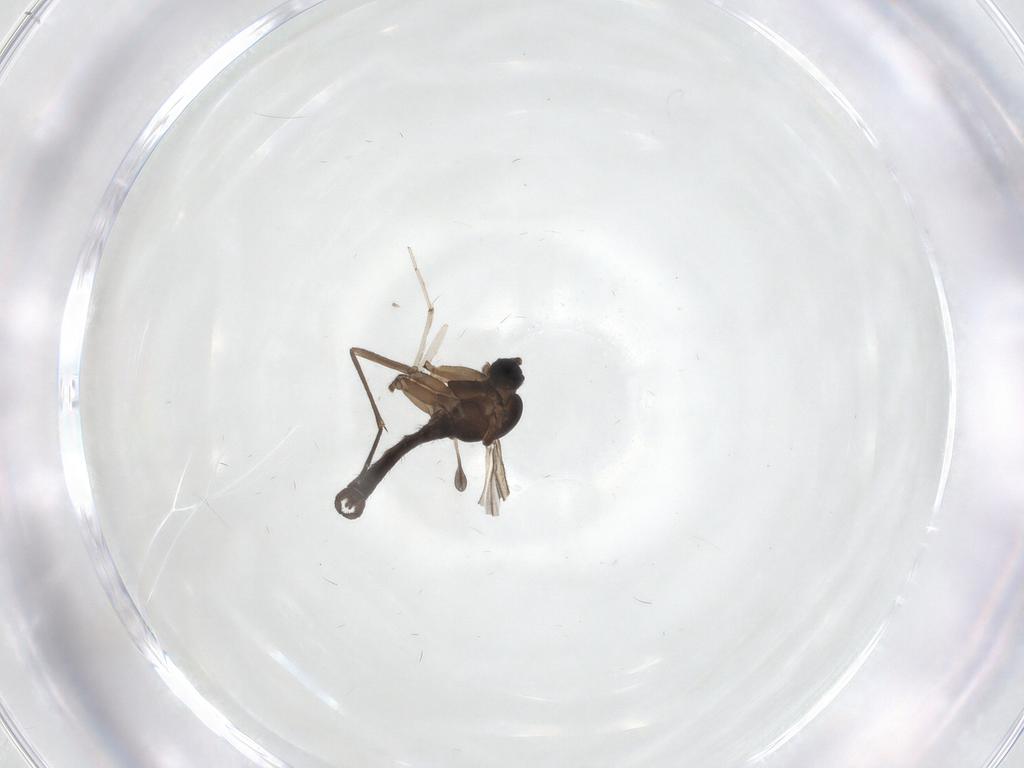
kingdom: Animalia
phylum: Arthropoda
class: Insecta
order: Diptera
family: Sciaridae
